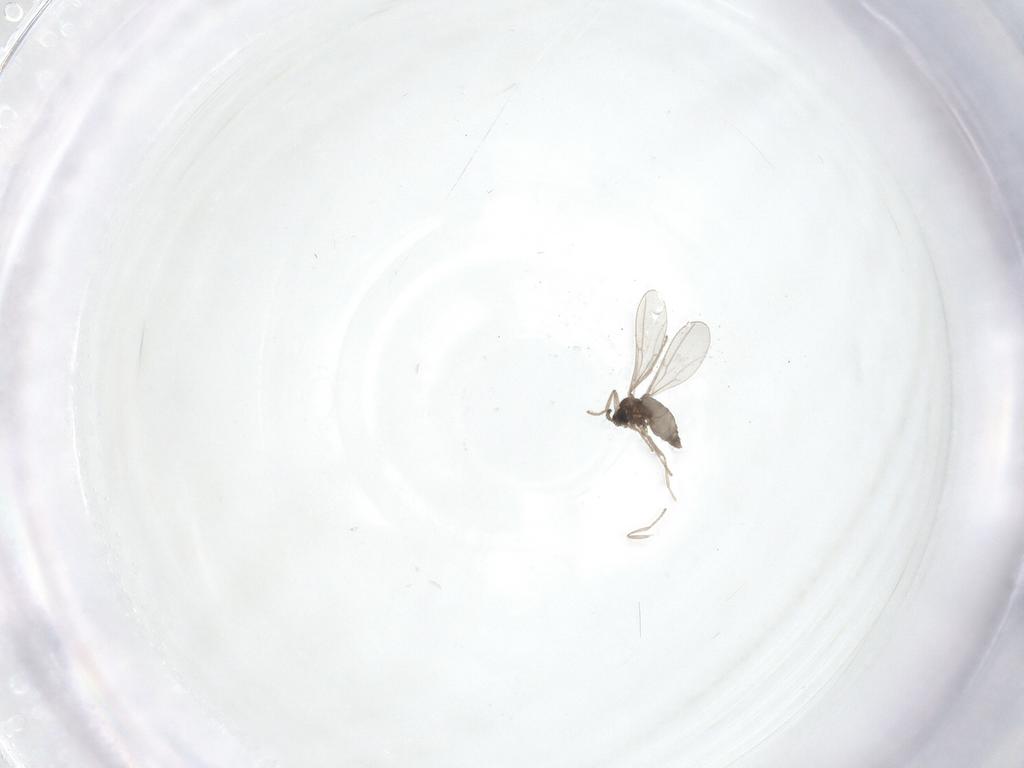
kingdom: Animalia
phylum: Arthropoda
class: Insecta
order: Diptera
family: Cecidomyiidae
